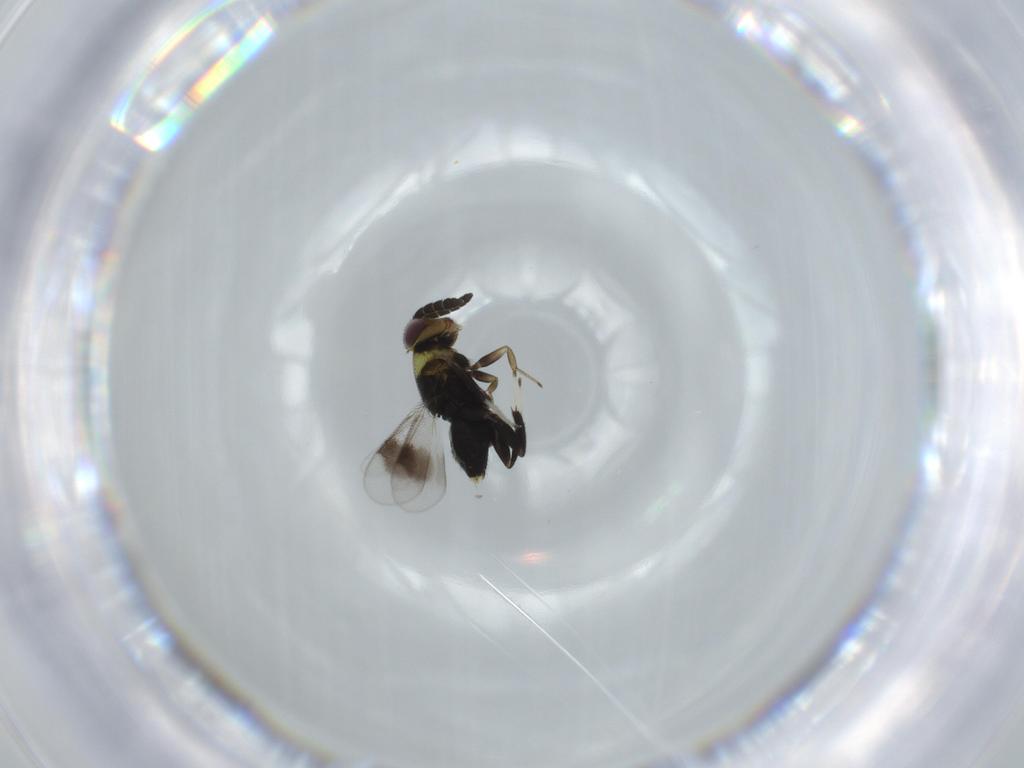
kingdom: Animalia
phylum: Arthropoda
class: Insecta
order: Hymenoptera
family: Aphelinidae
